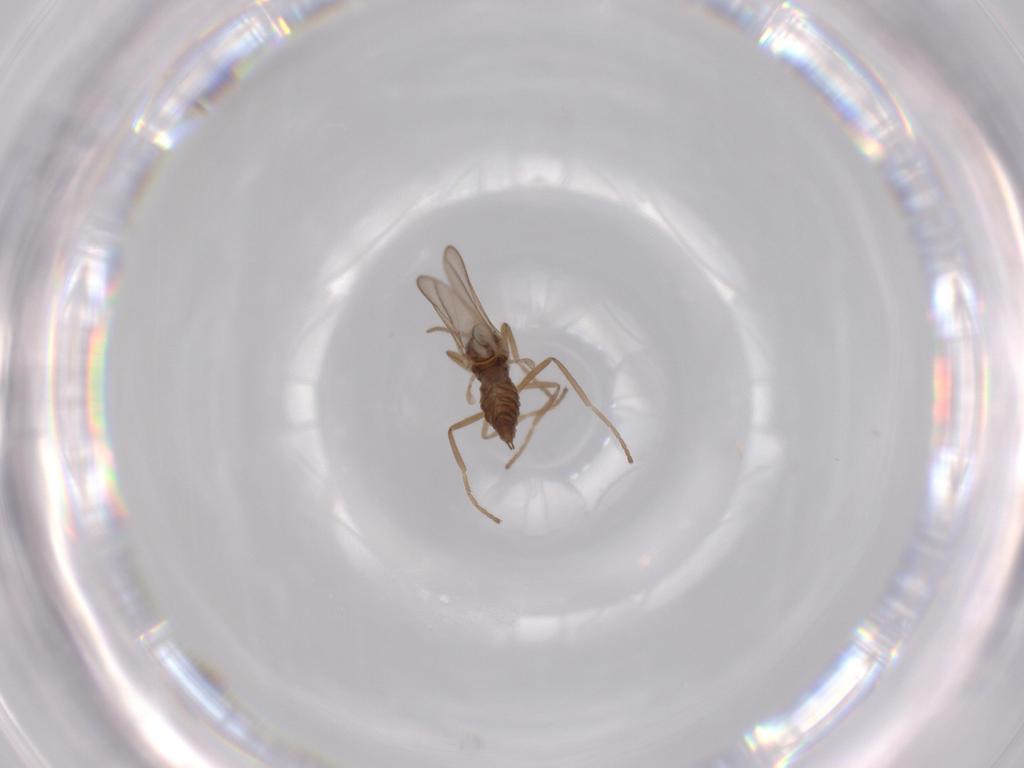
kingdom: Animalia
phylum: Arthropoda
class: Insecta
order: Diptera
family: Cecidomyiidae
